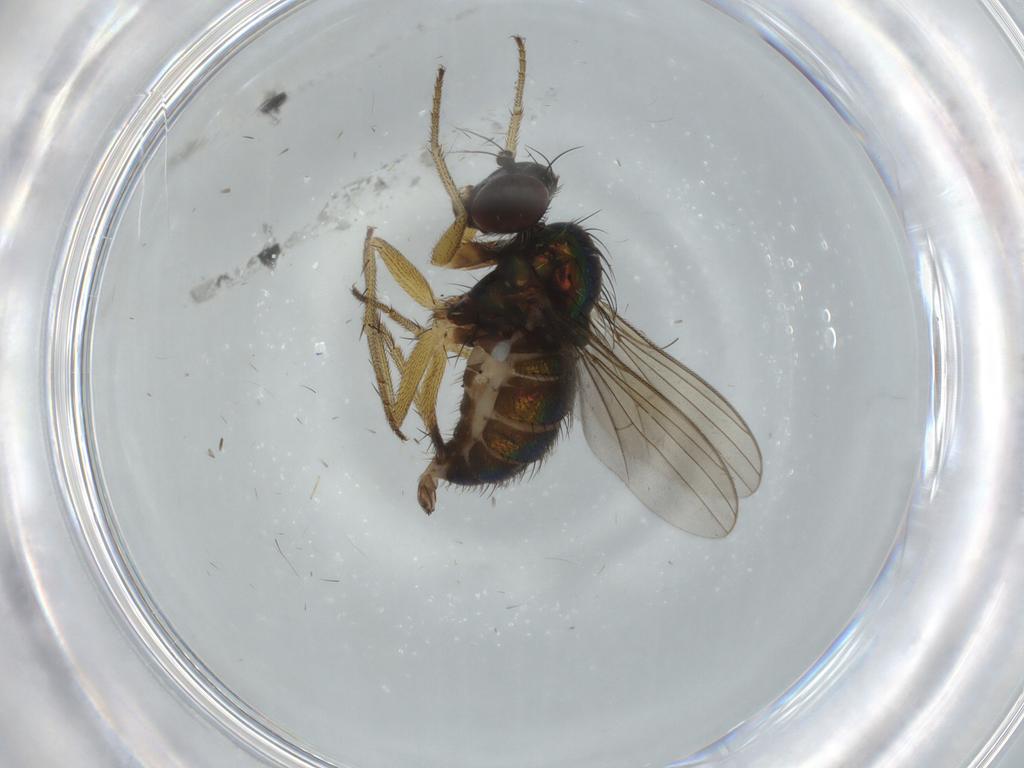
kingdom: Animalia
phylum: Arthropoda
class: Insecta
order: Diptera
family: Dolichopodidae
